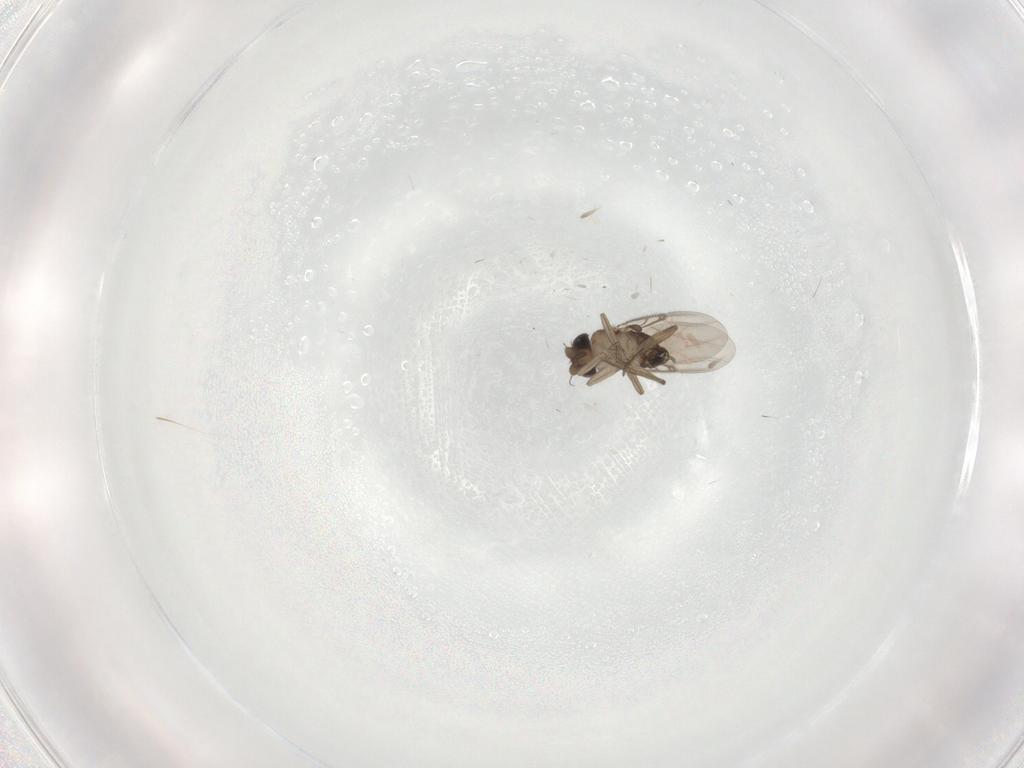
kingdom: Animalia
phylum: Arthropoda
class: Insecta
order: Diptera
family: Phoridae
